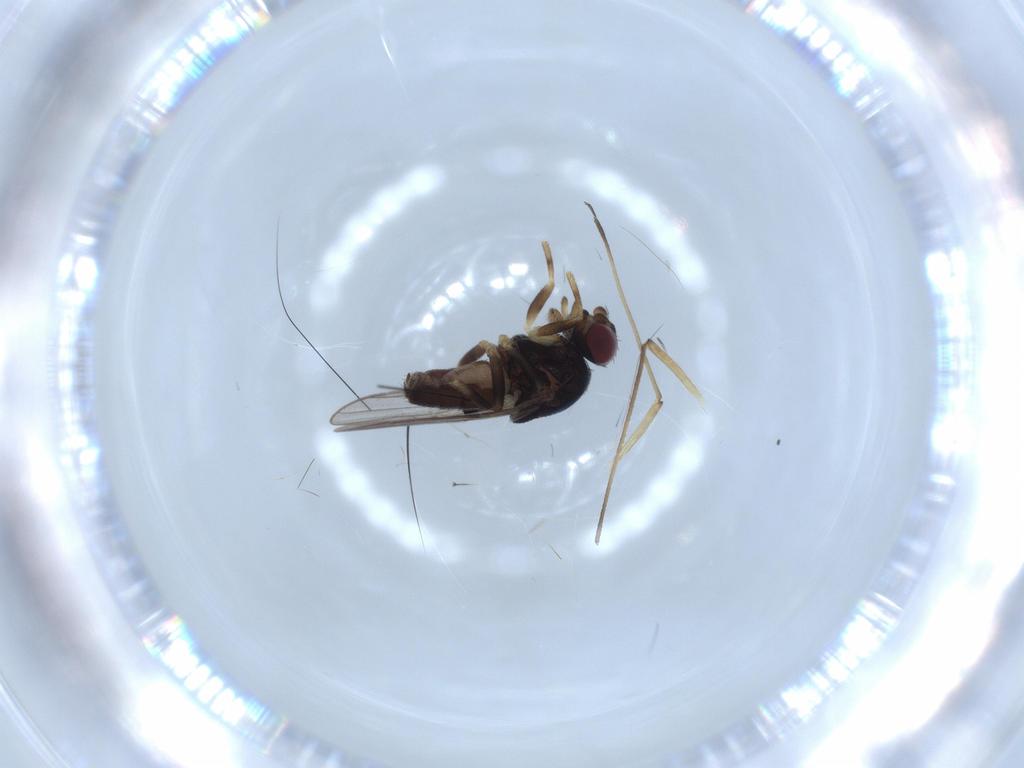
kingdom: Animalia
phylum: Arthropoda
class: Insecta
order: Diptera
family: Chloropidae
